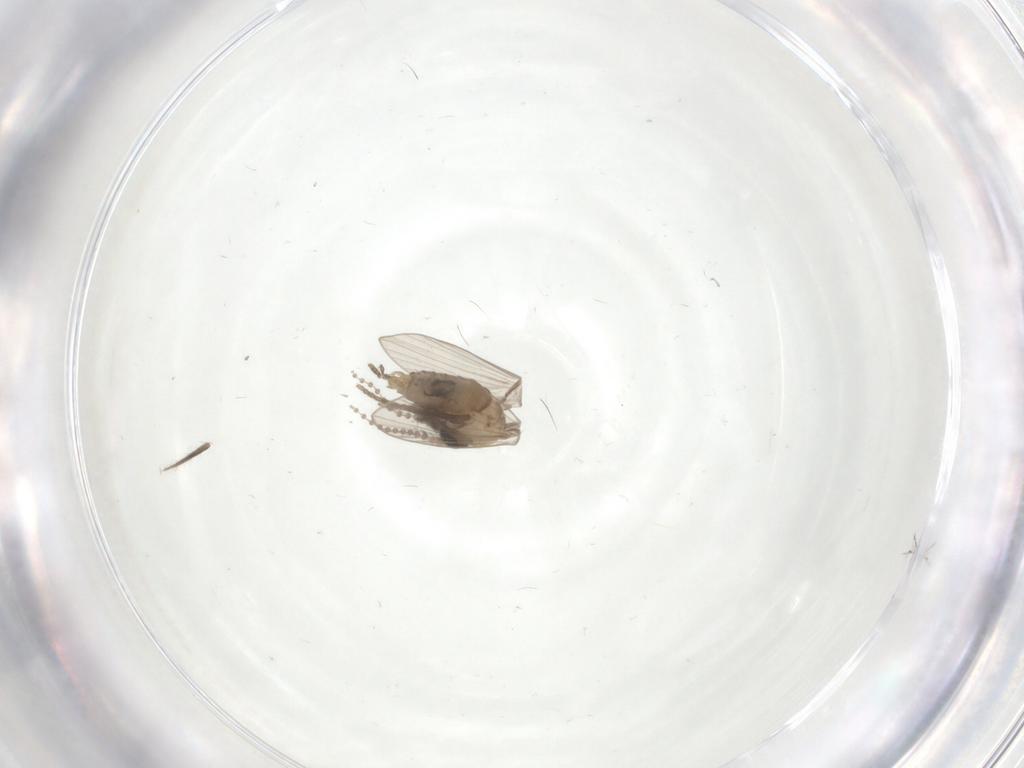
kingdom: Animalia
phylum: Arthropoda
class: Insecta
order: Diptera
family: Psychodidae
